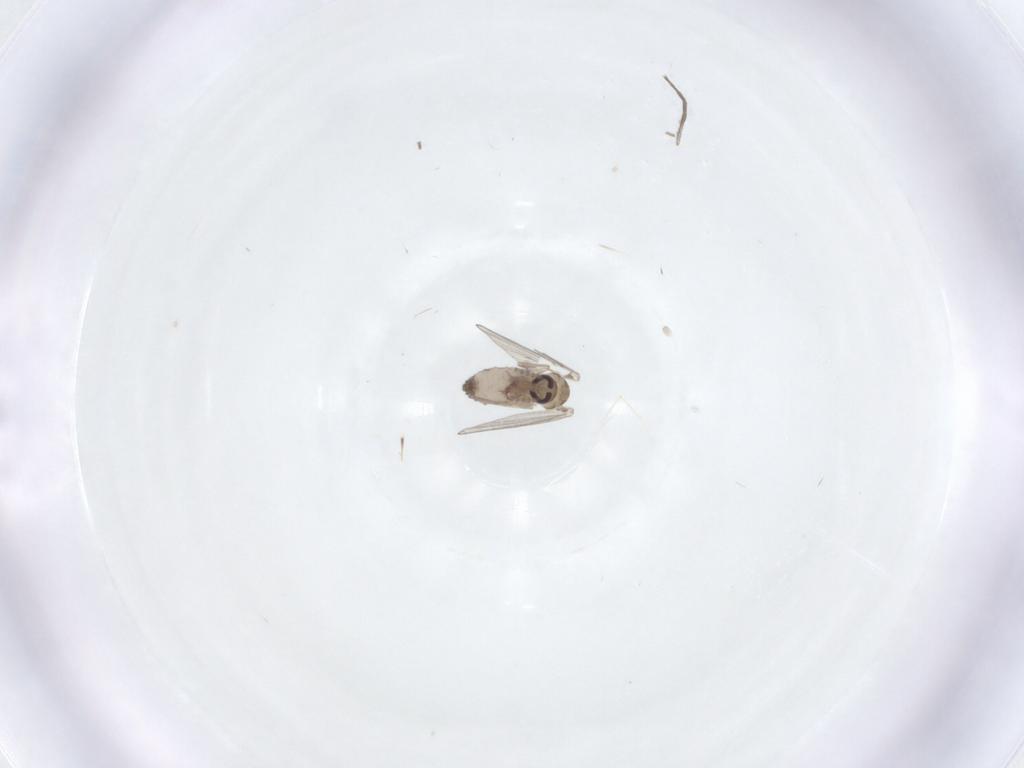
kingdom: Animalia
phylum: Arthropoda
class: Insecta
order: Diptera
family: Psychodidae
